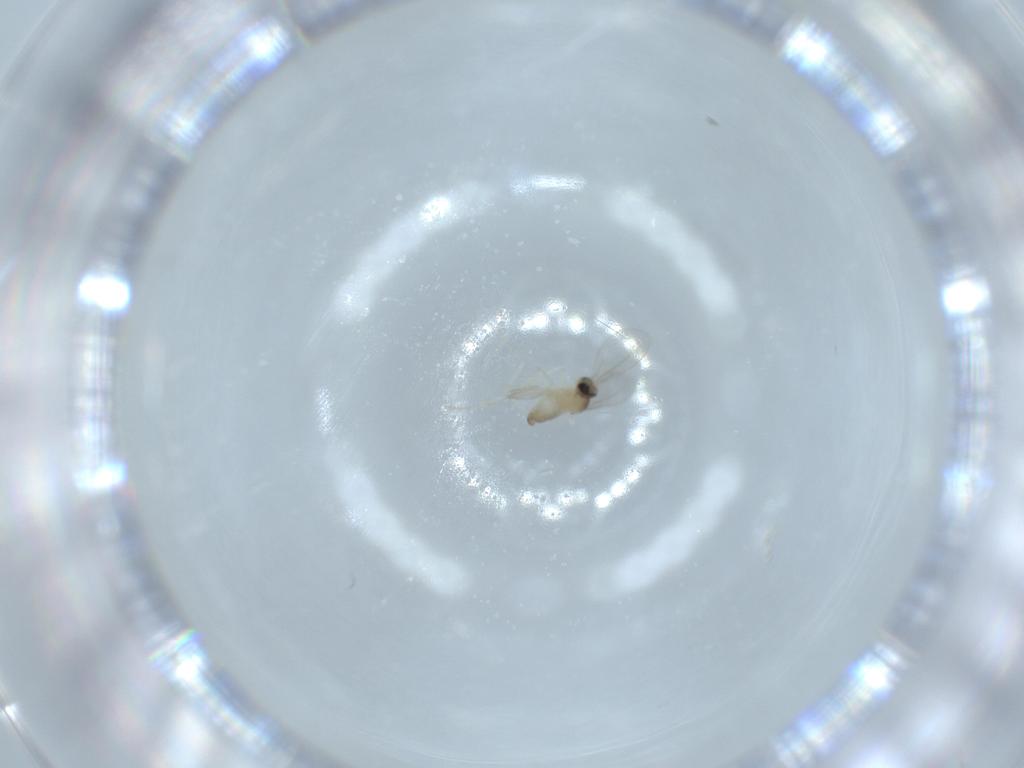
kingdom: Animalia
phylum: Arthropoda
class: Insecta
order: Diptera
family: Cecidomyiidae
